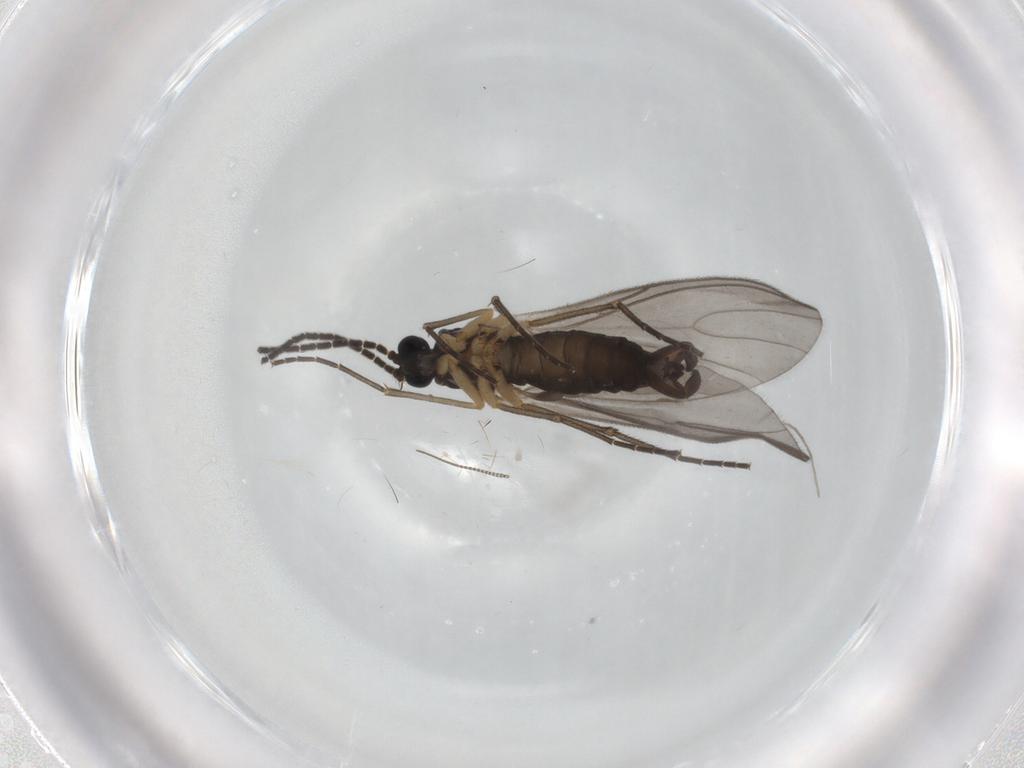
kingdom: Animalia
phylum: Arthropoda
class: Insecta
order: Diptera
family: Sciaridae
